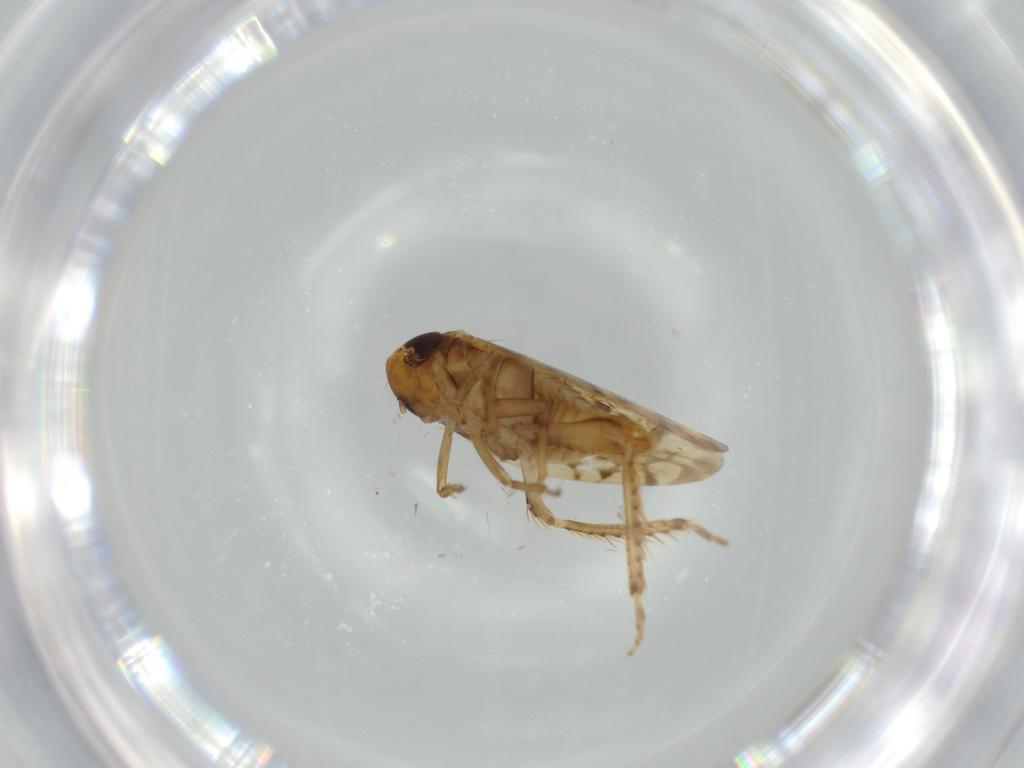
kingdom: Animalia
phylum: Arthropoda
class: Insecta
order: Hemiptera
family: Cicadellidae
